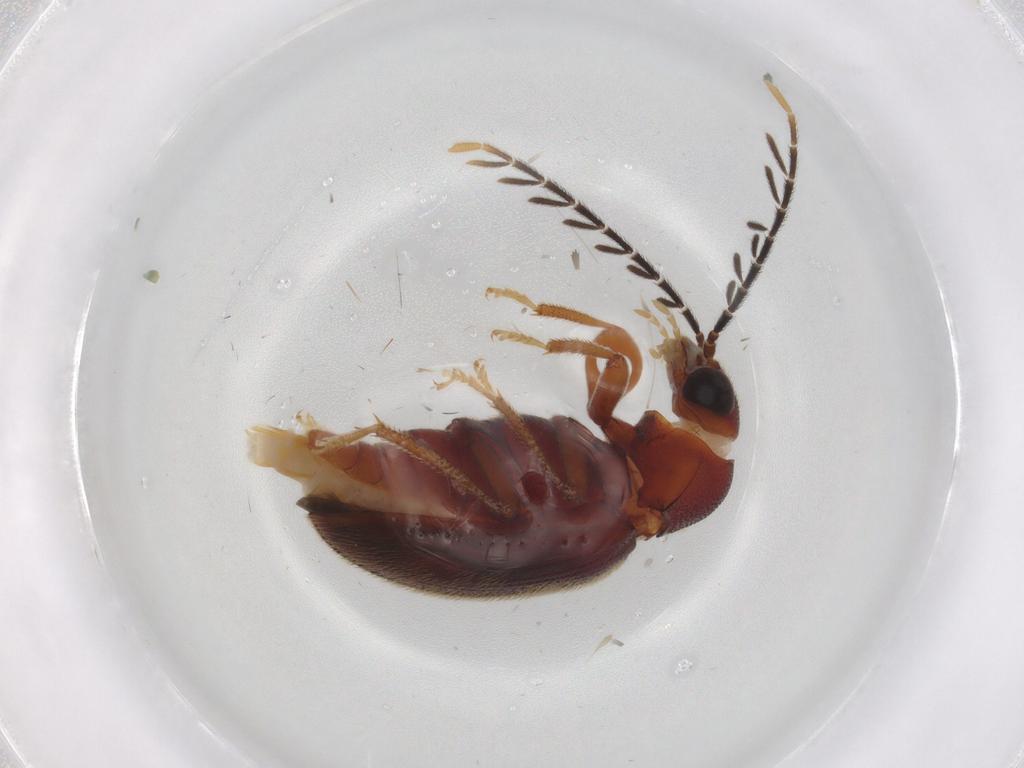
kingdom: Animalia
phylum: Arthropoda
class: Insecta
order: Coleoptera
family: Ptilodactylidae
